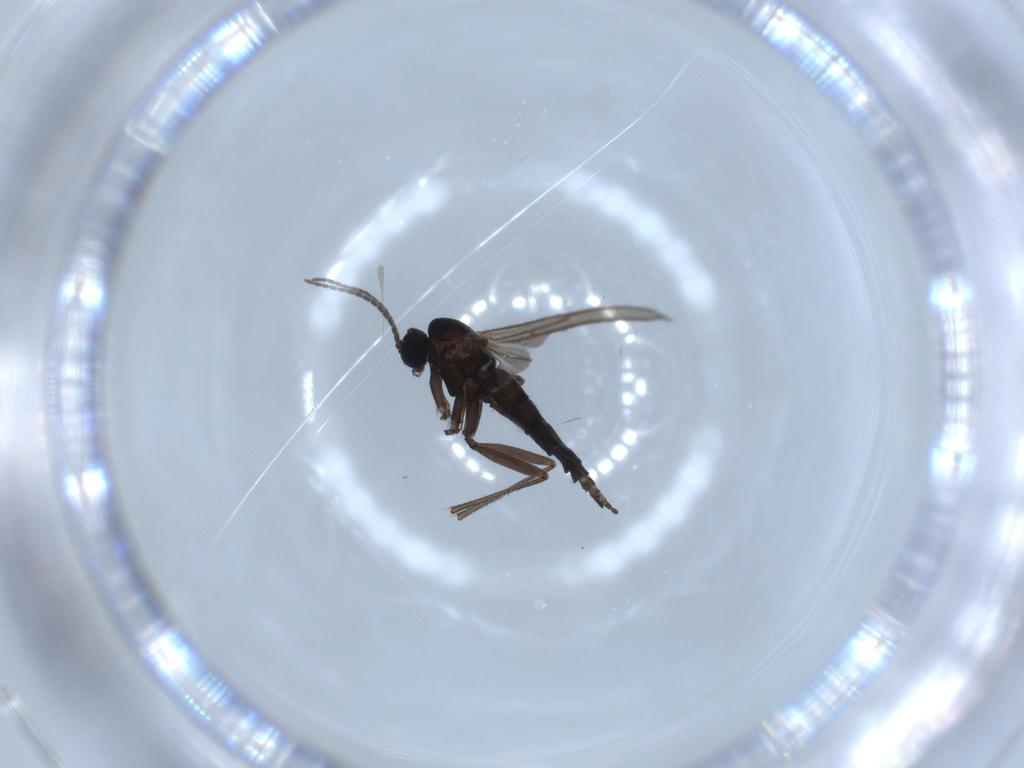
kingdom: Animalia
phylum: Arthropoda
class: Insecta
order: Diptera
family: Sciaridae
